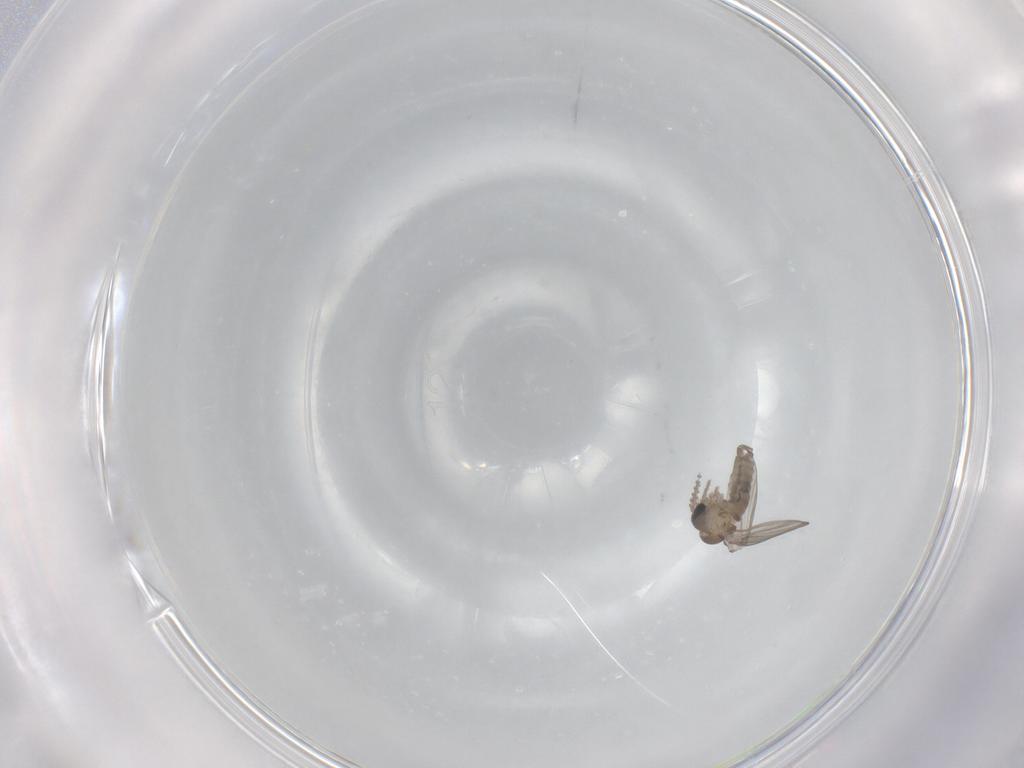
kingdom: Animalia
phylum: Arthropoda
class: Insecta
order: Diptera
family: Psychodidae
